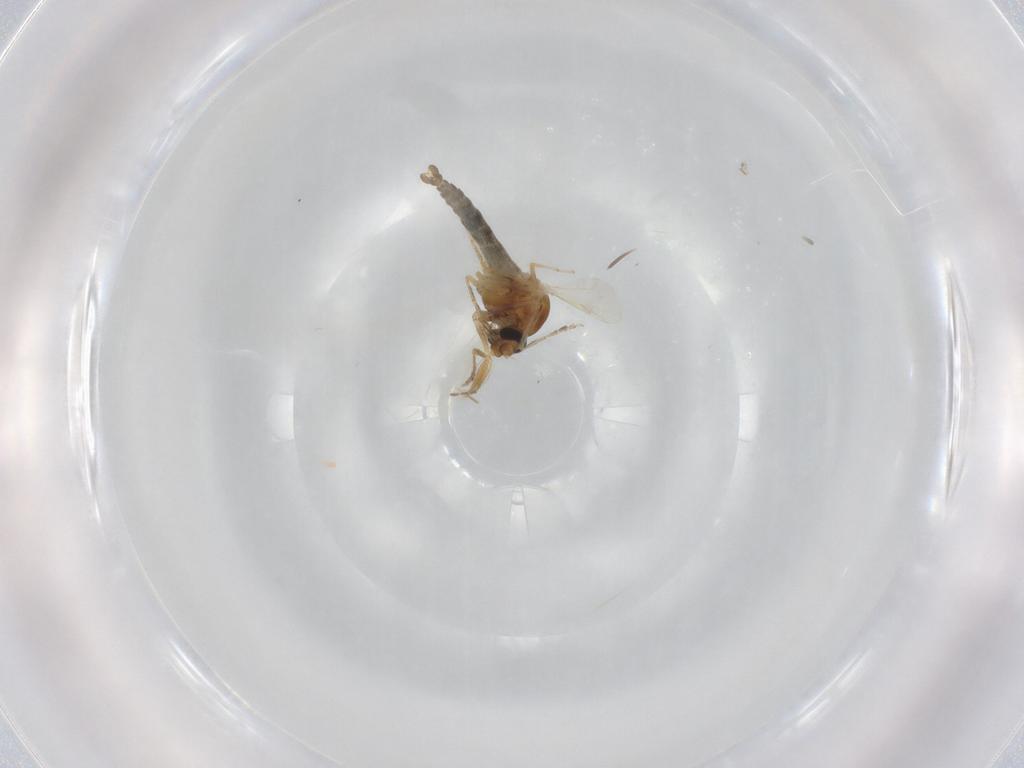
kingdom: Animalia
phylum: Arthropoda
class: Insecta
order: Diptera
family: Ceratopogonidae
